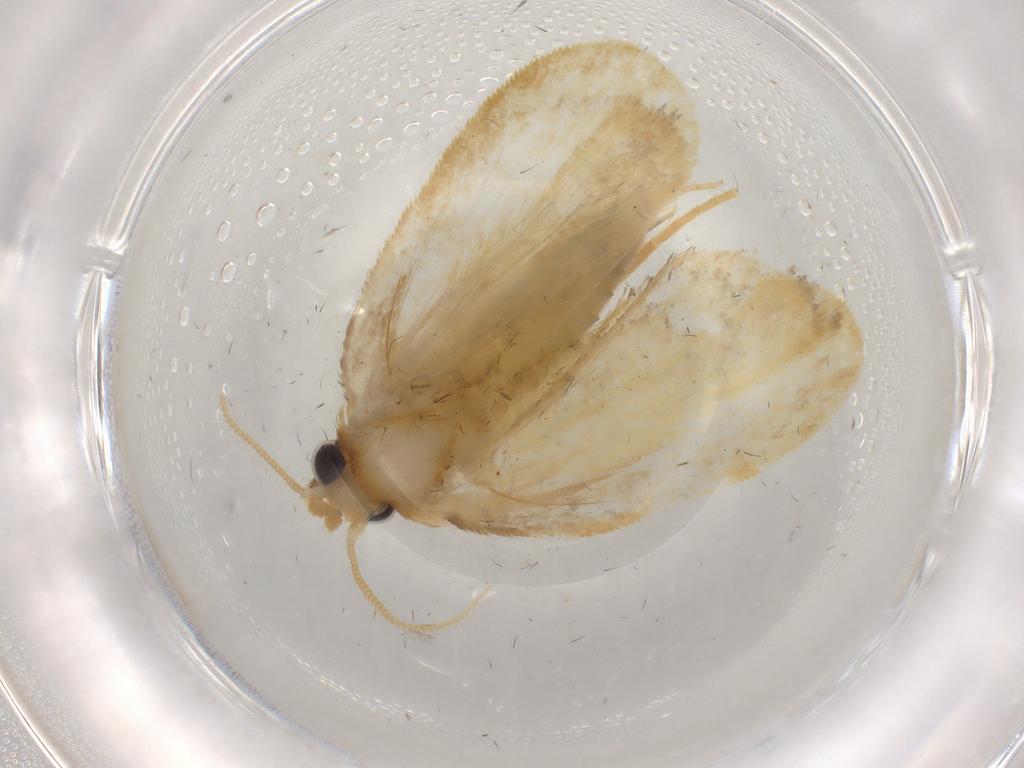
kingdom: Animalia
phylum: Arthropoda
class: Insecta
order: Lepidoptera
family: Psychidae
